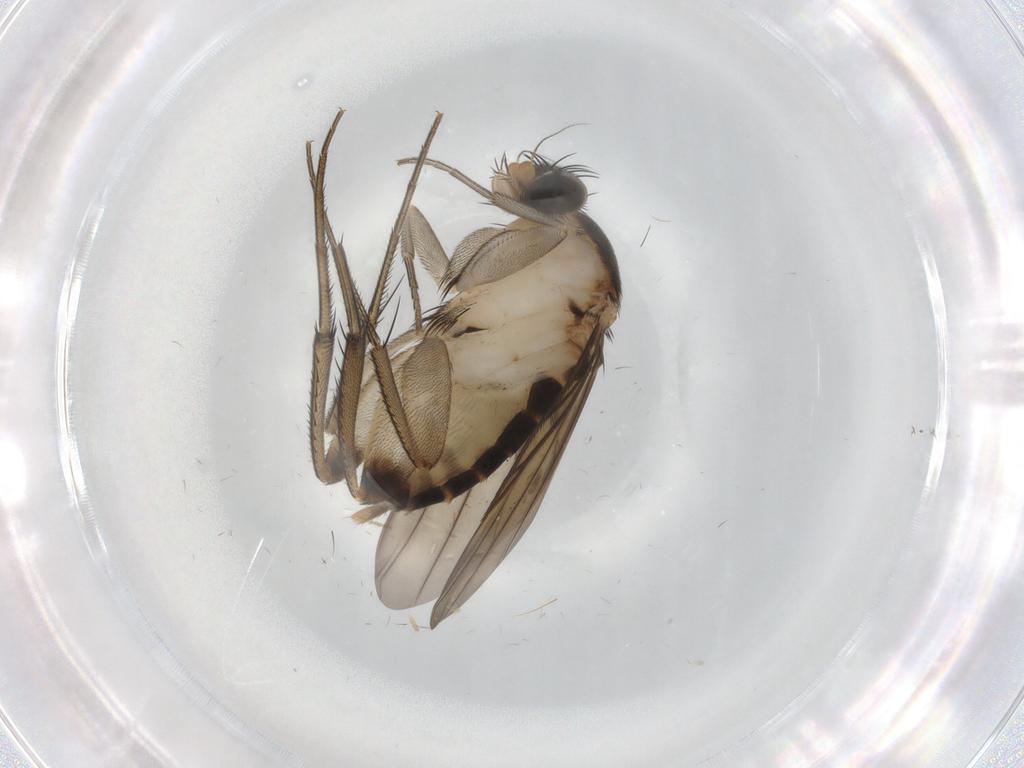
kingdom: Animalia
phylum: Arthropoda
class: Insecta
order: Diptera
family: Phoridae
